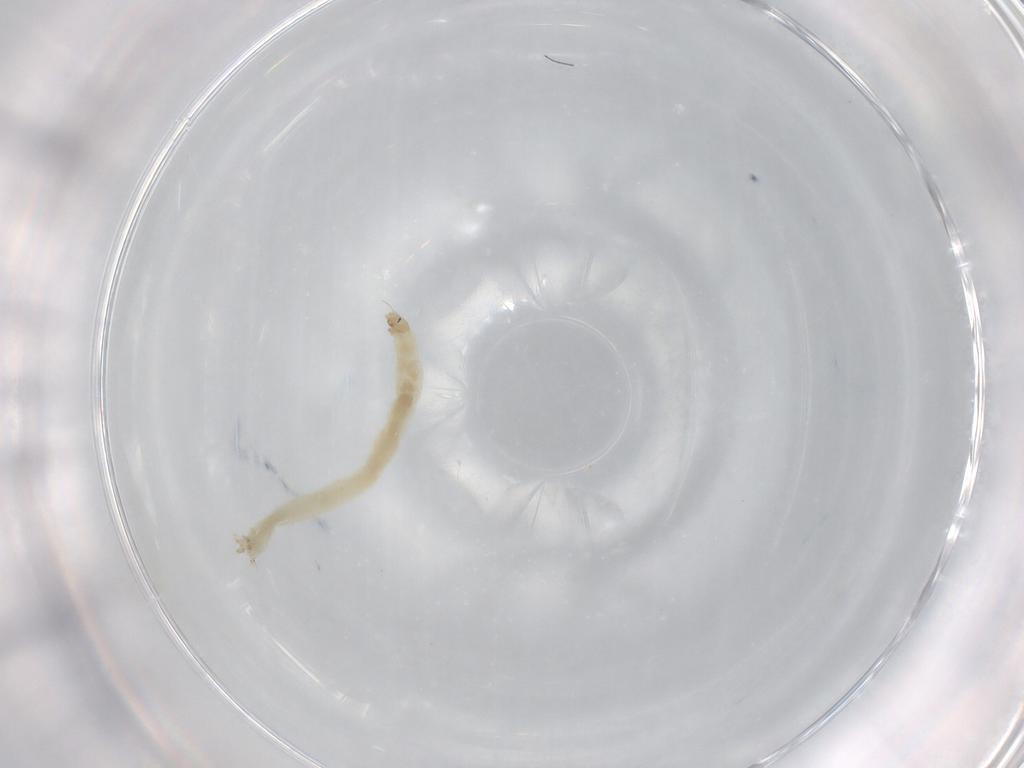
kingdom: Animalia
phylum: Arthropoda
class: Insecta
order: Diptera
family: Chironomidae
